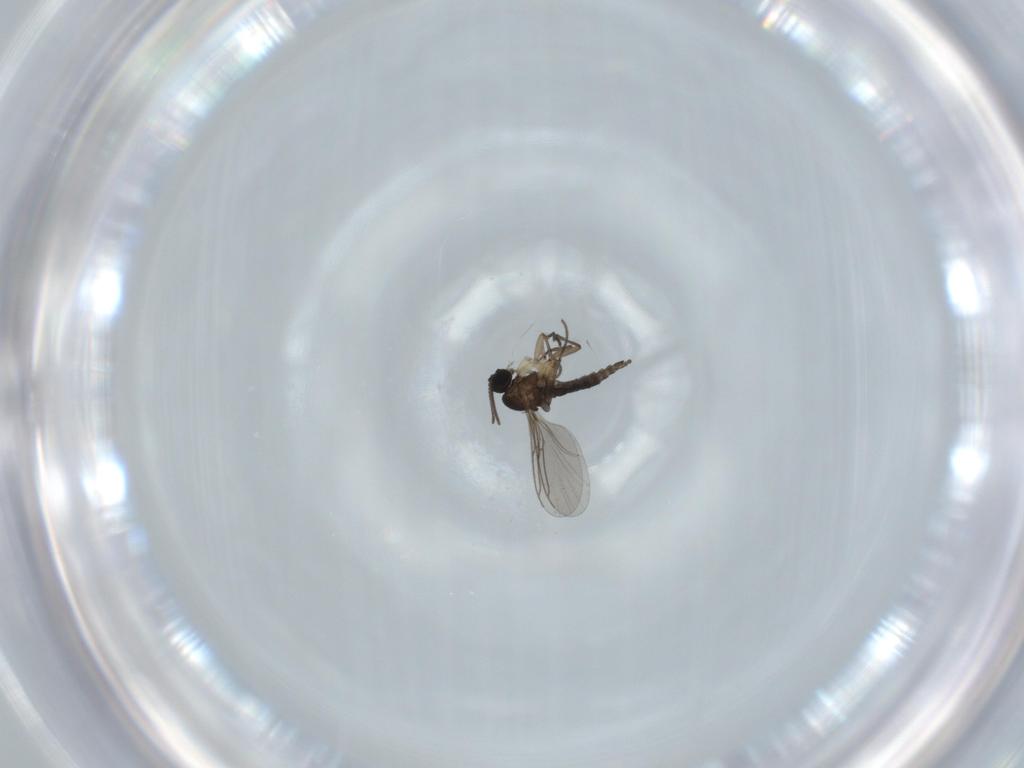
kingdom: Animalia
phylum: Arthropoda
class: Insecta
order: Diptera
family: Sciaridae
